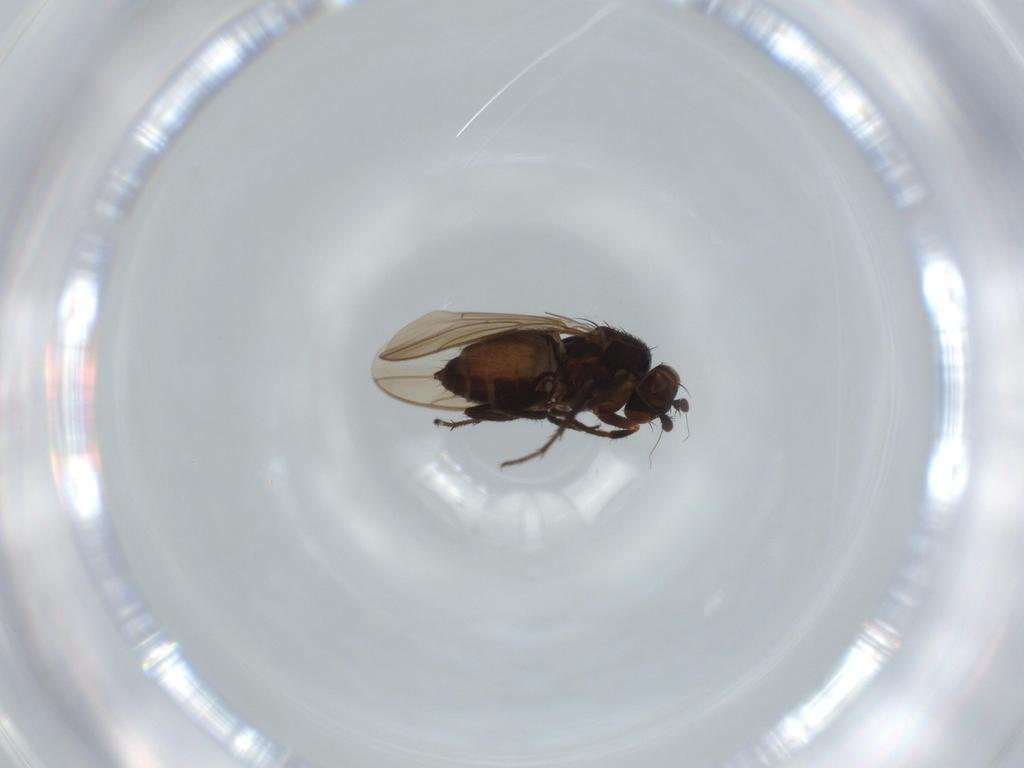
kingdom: Animalia
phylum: Arthropoda
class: Insecta
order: Diptera
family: Sphaeroceridae
